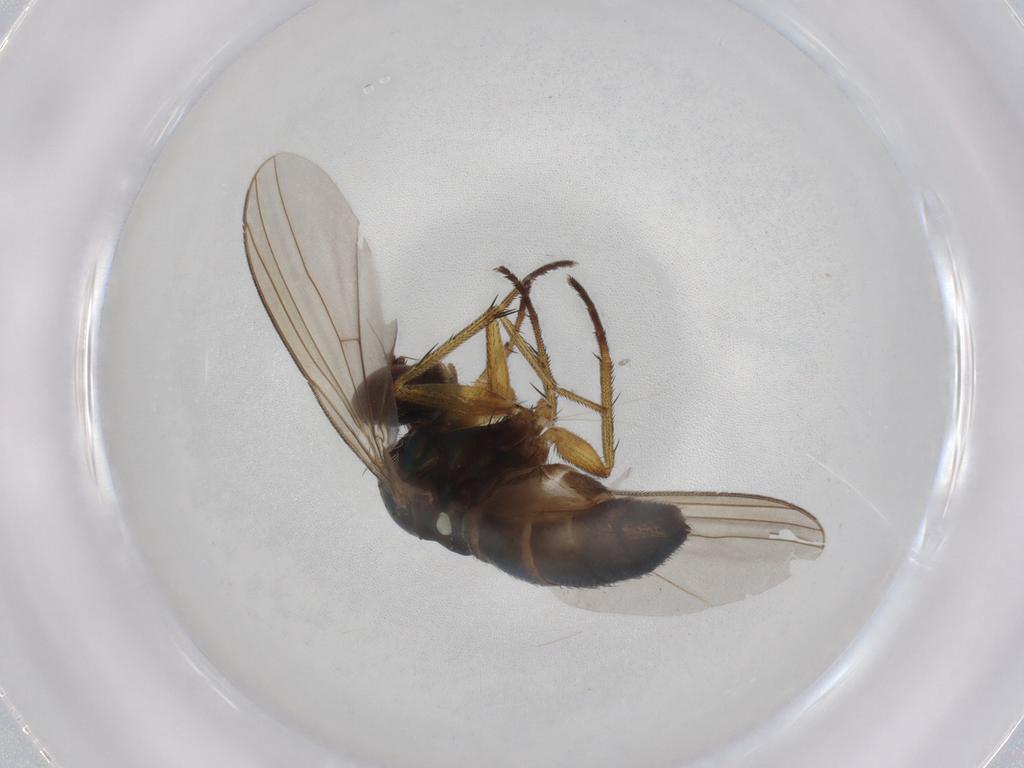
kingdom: Animalia
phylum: Arthropoda
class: Insecta
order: Diptera
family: Dolichopodidae
